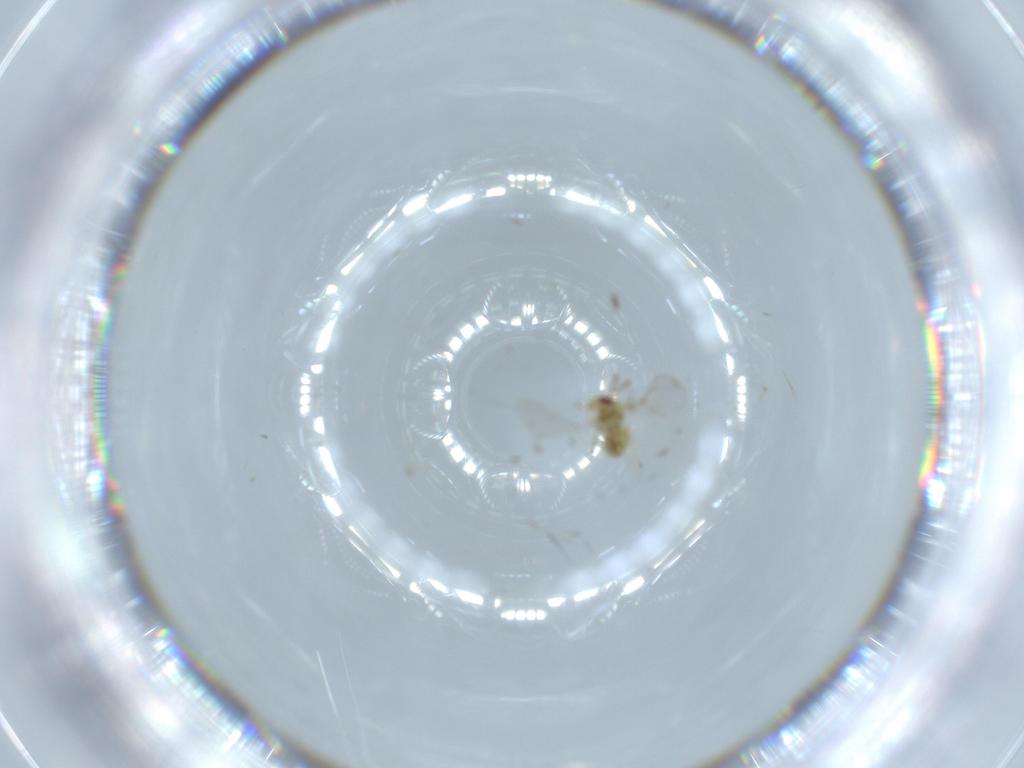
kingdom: Animalia
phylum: Arthropoda
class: Insecta
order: Hymenoptera
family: Eulophidae
